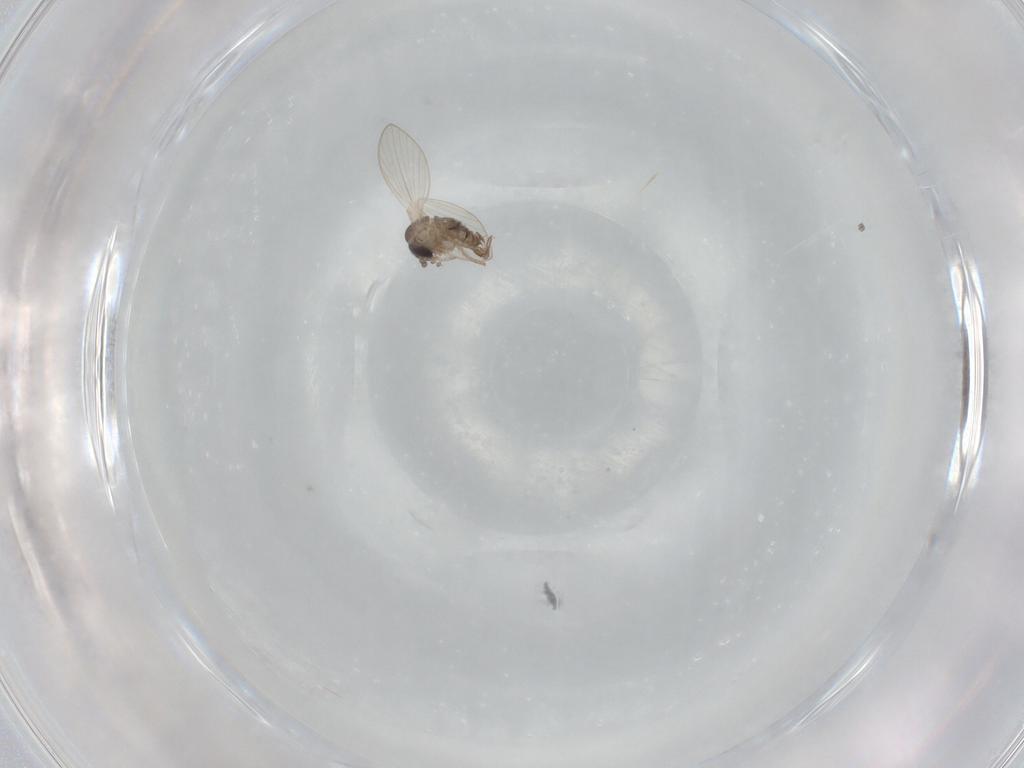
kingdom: Animalia
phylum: Arthropoda
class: Insecta
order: Diptera
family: Psychodidae
